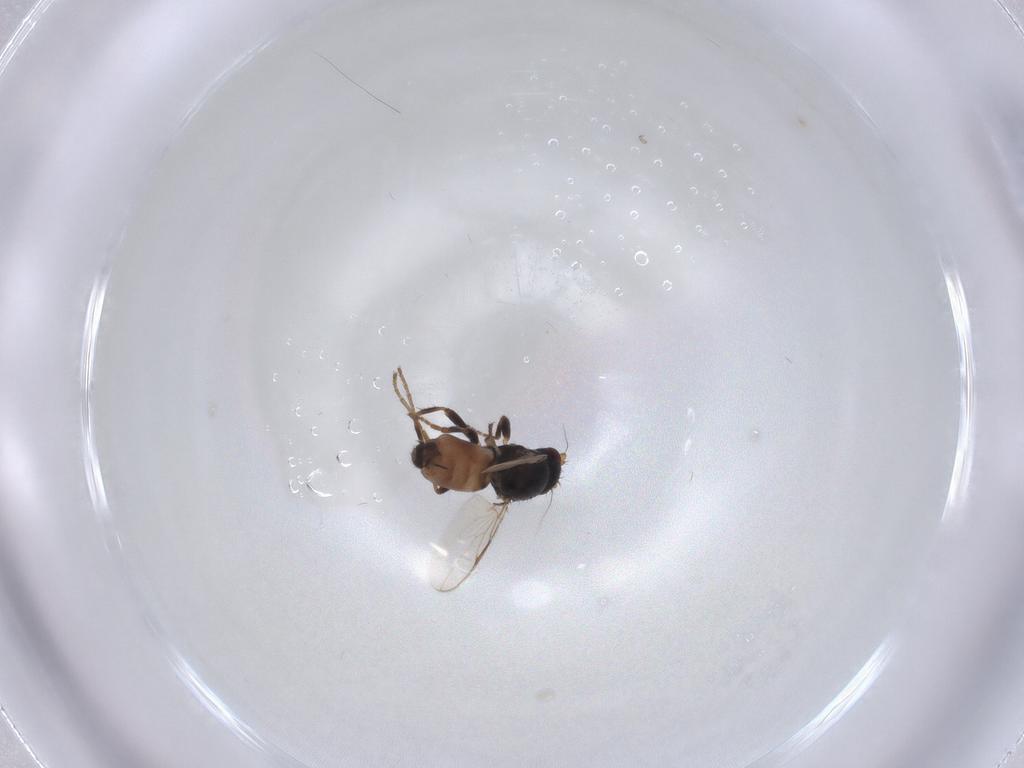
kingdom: Animalia
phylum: Arthropoda
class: Insecta
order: Diptera
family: Sphaeroceridae
